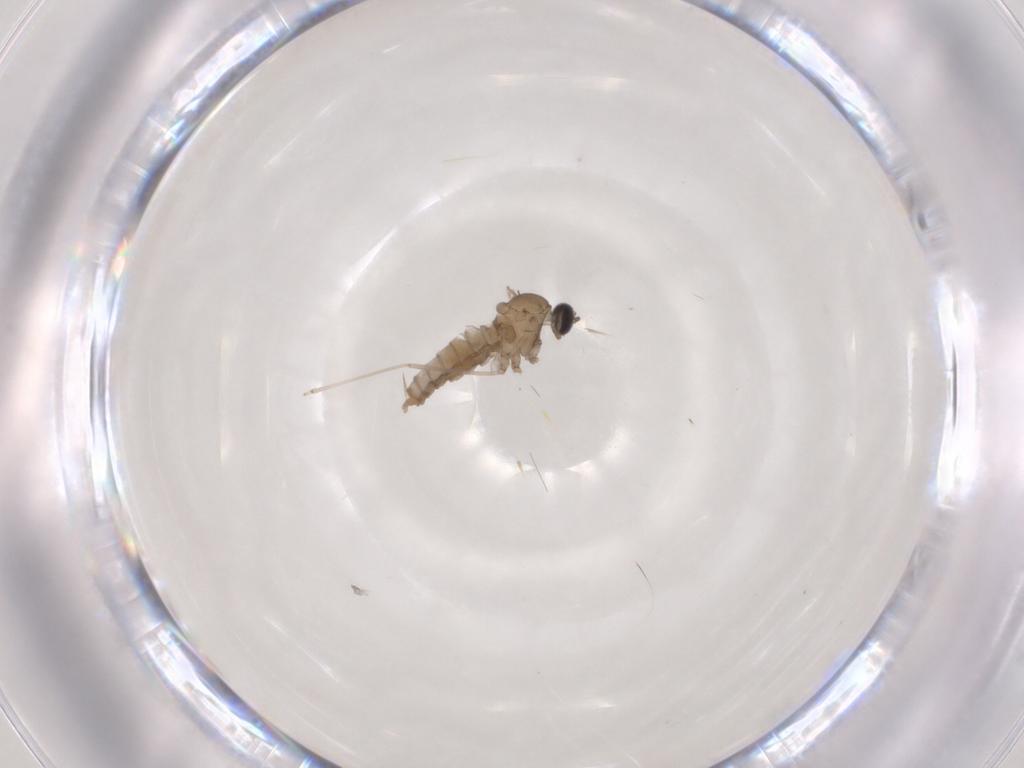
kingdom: Animalia
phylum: Arthropoda
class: Insecta
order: Diptera
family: Chironomidae
